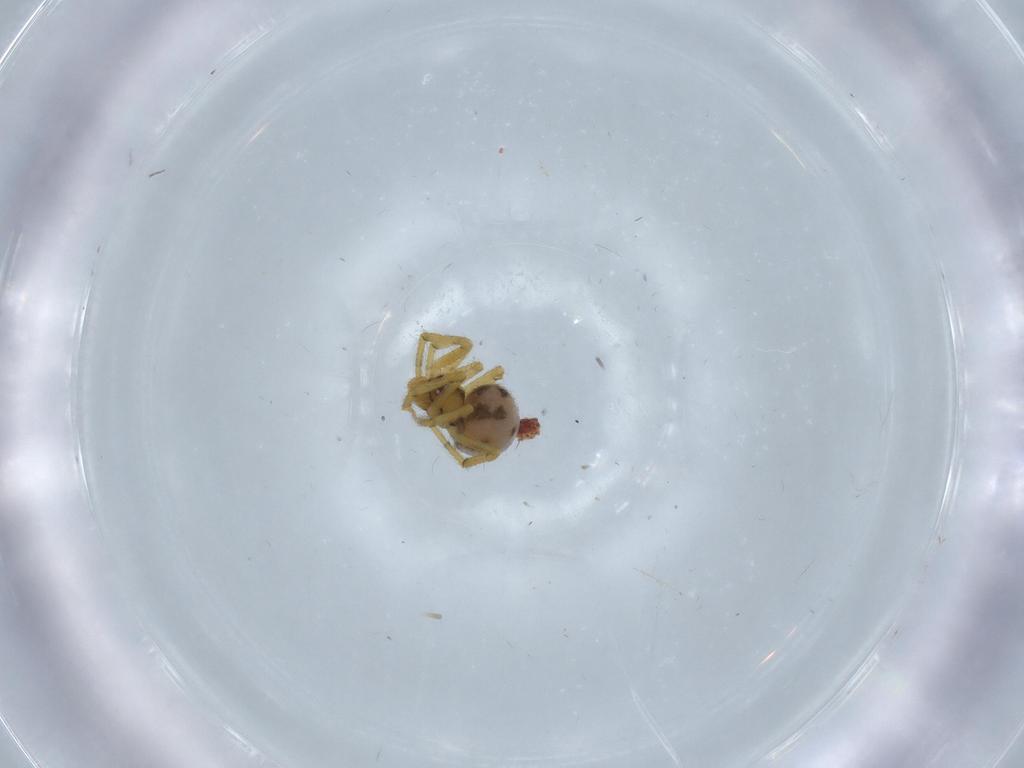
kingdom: Animalia
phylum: Arthropoda
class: Arachnida
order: Araneae
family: Theridiidae
